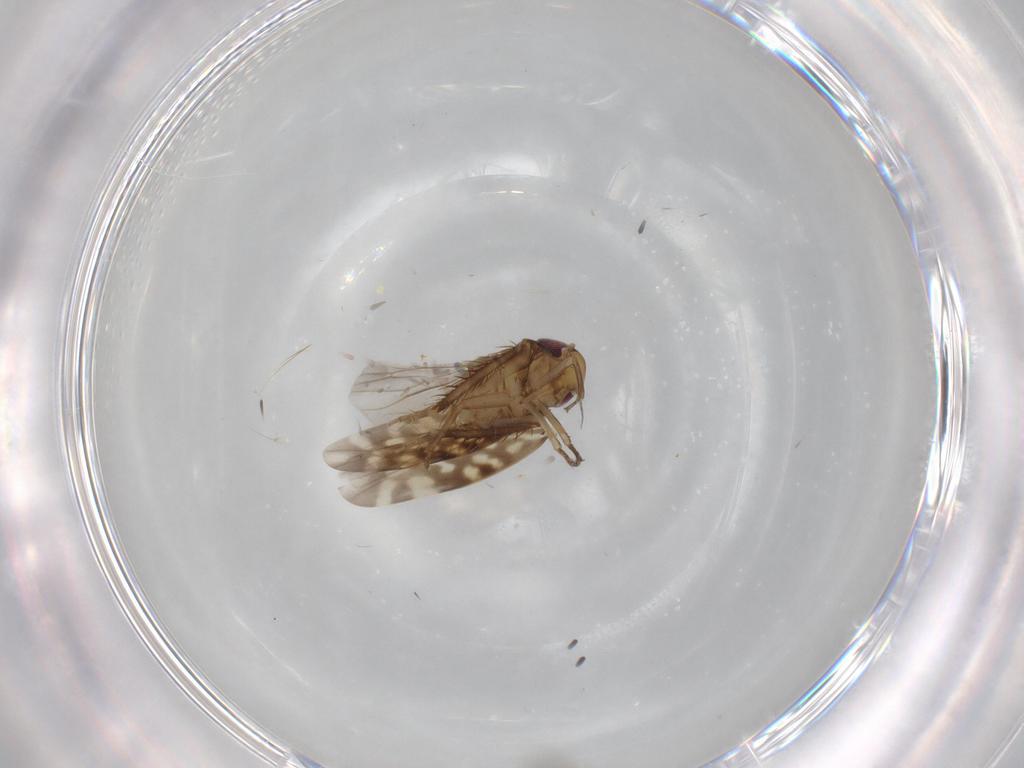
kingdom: Animalia
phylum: Arthropoda
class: Insecta
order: Hemiptera
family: Cicadellidae
